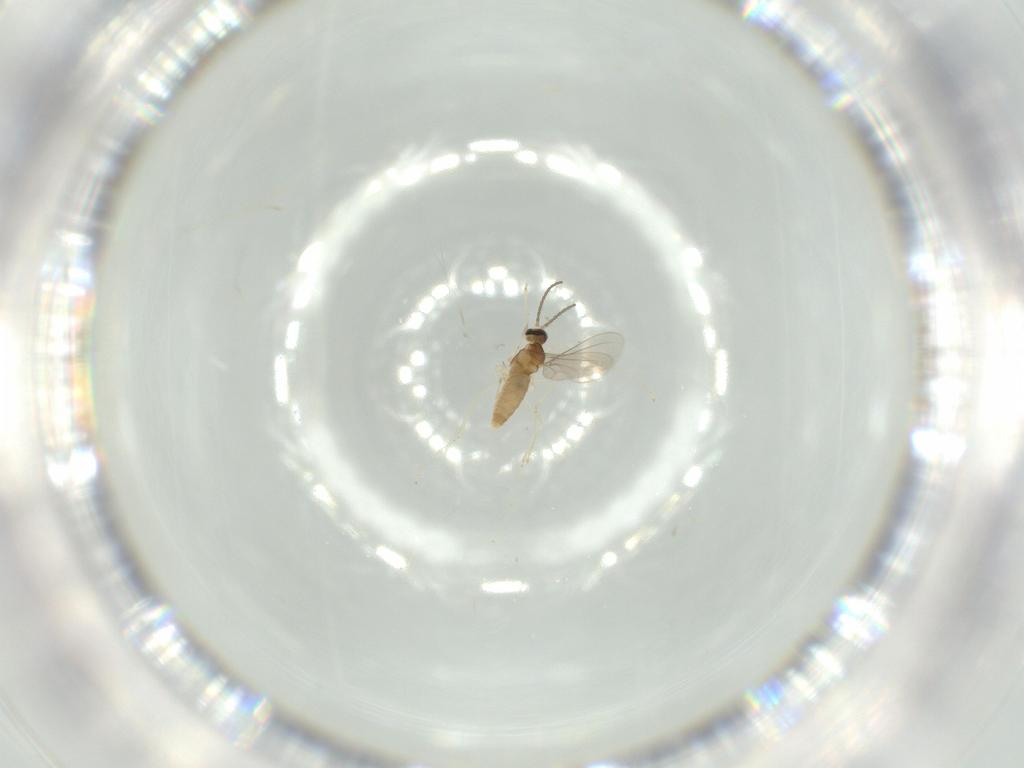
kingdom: Animalia
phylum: Arthropoda
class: Insecta
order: Diptera
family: Cecidomyiidae
